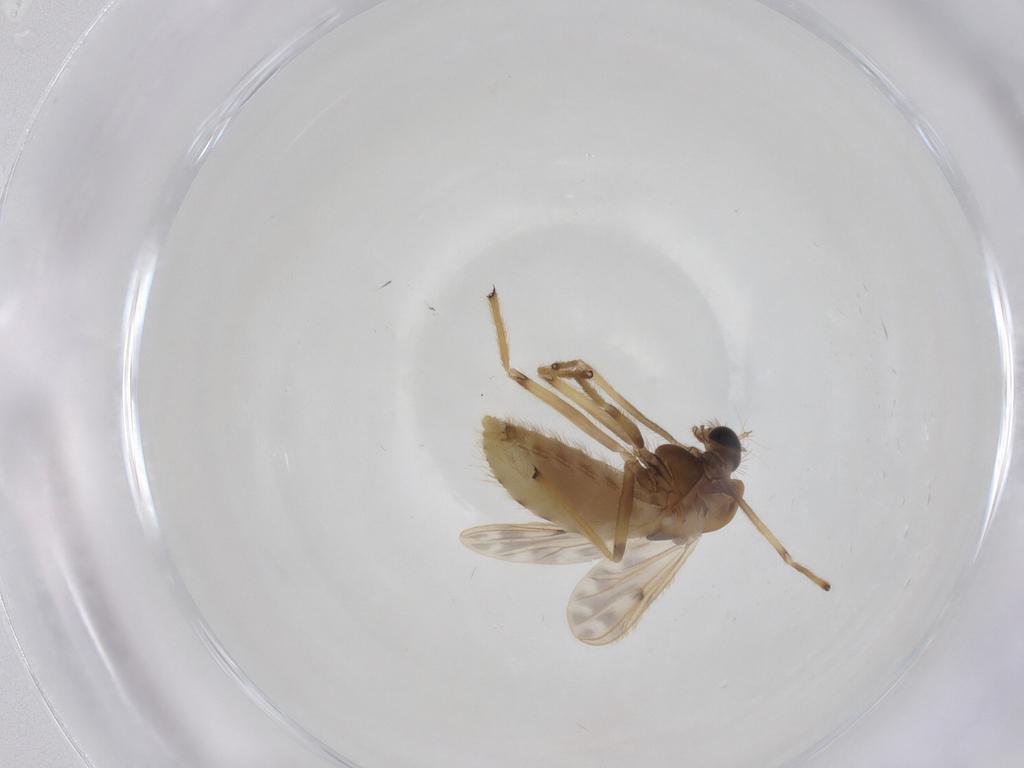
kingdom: Animalia
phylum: Arthropoda
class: Insecta
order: Diptera
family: Chironomidae
